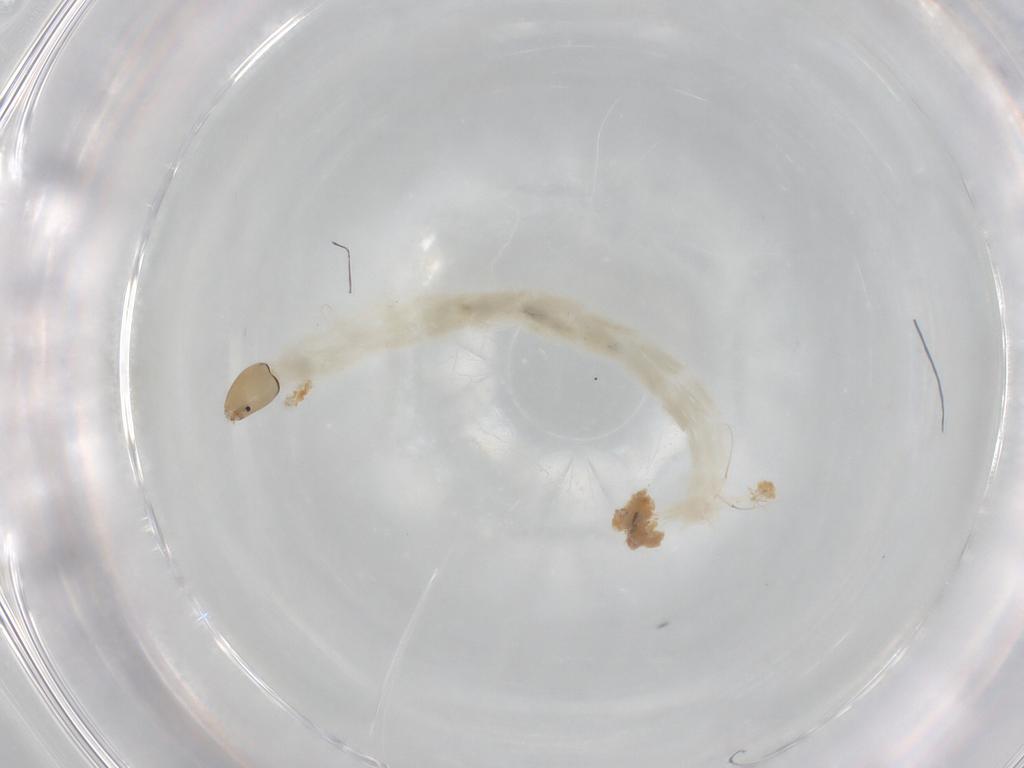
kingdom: Animalia
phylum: Arthropoda
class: Insecta
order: Diptera
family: Chironomidae
